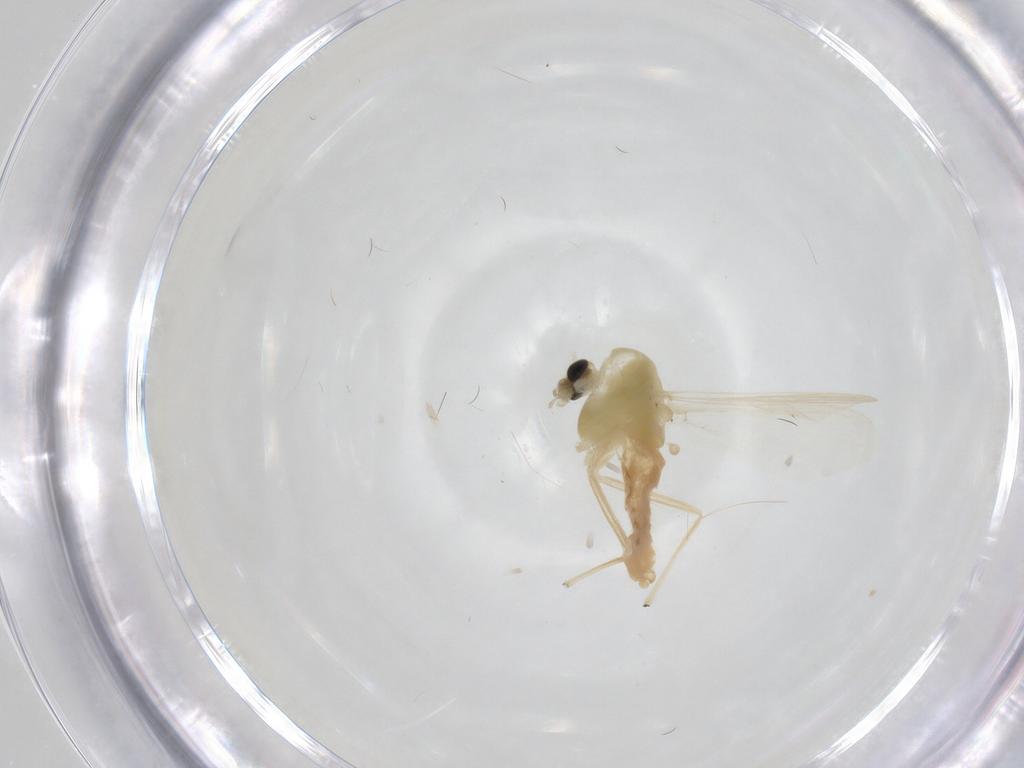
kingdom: Animalia
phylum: Arthropoda
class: Insecta
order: Diptera
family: Chironomidae
